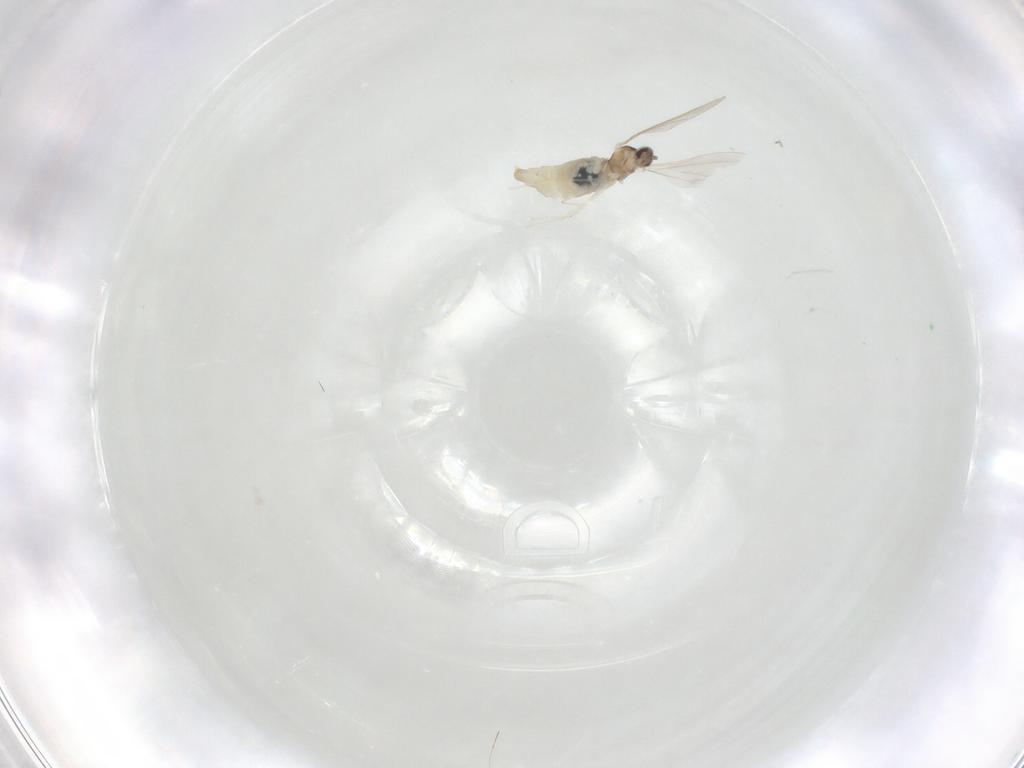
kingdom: Animalia
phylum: Arthropoda
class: Insecta
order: Diptera
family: Cecidomyiidae
